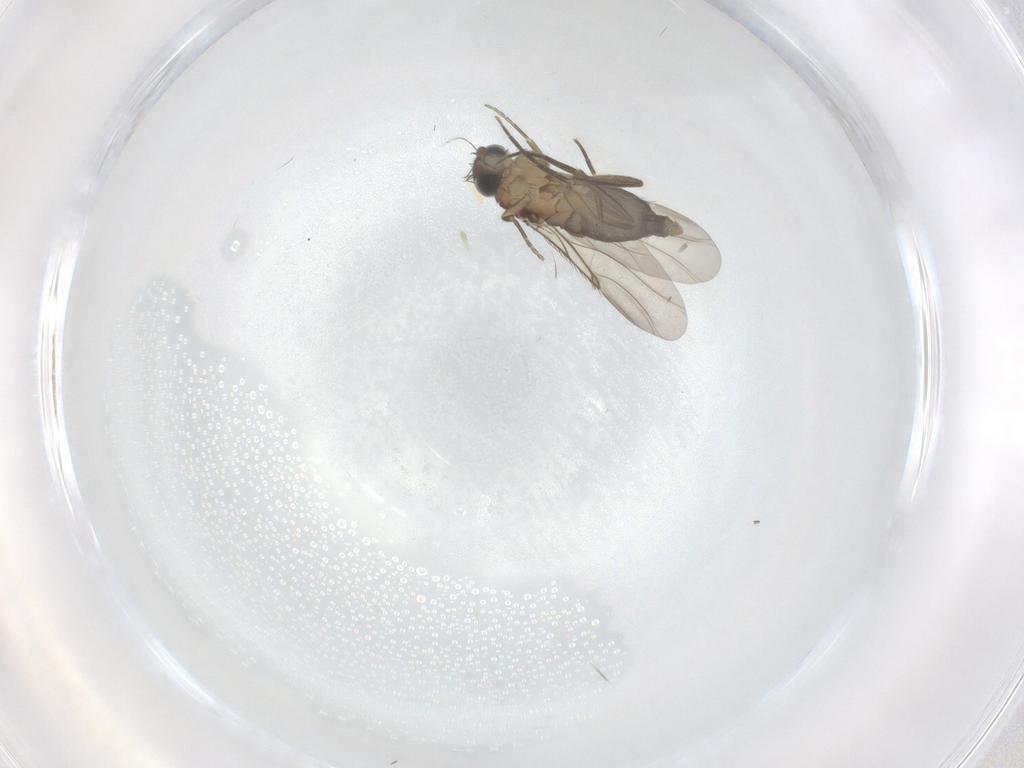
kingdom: Animalia
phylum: Arthropoda
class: Insecta
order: Diptera
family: Phoridae
